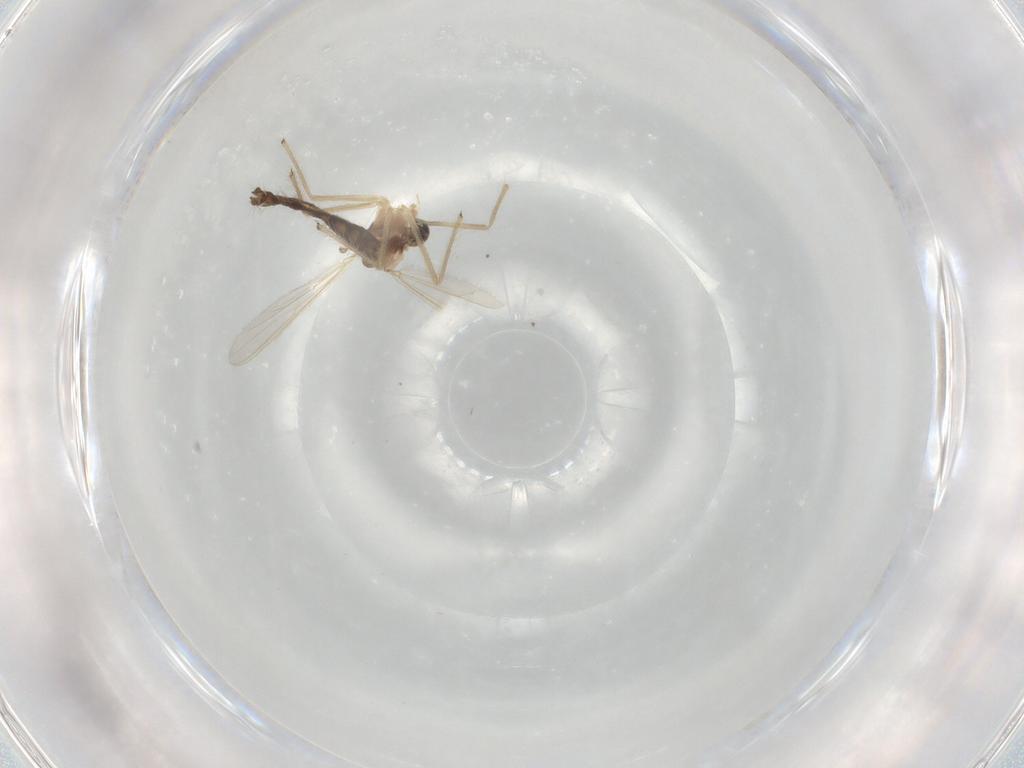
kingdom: Animalia
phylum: Arthropoda
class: Insecta
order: Diptera
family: Chironomidae
